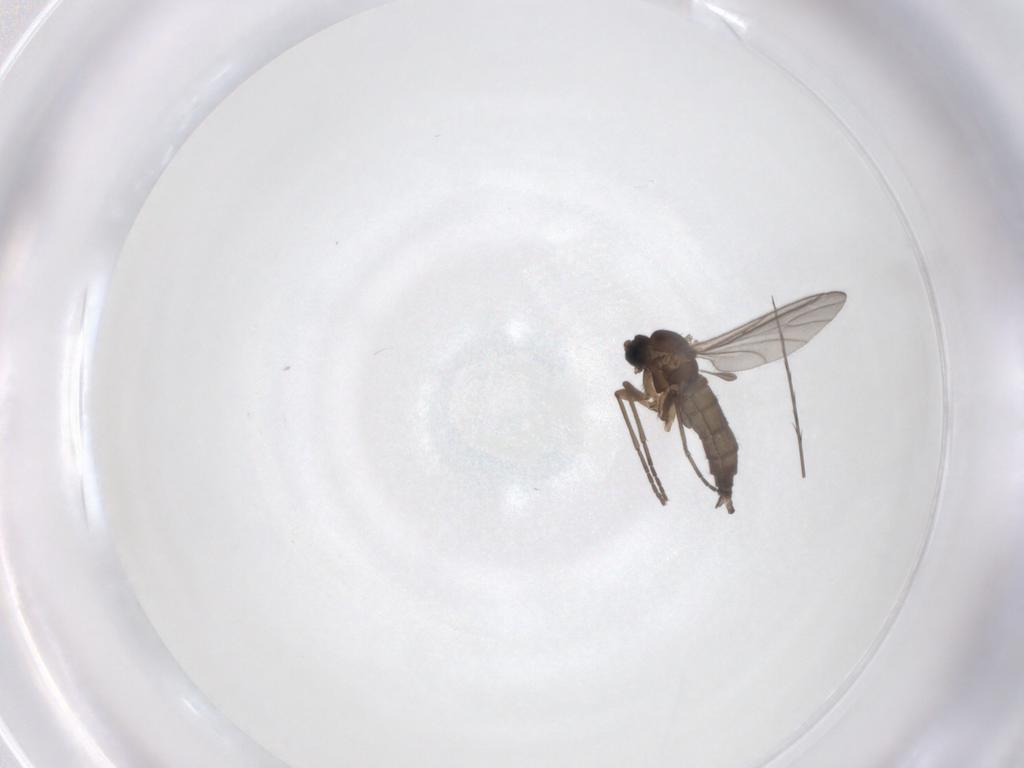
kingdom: Animalia
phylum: Arthropoda
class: Insecta
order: Diptera
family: Sciaridae
